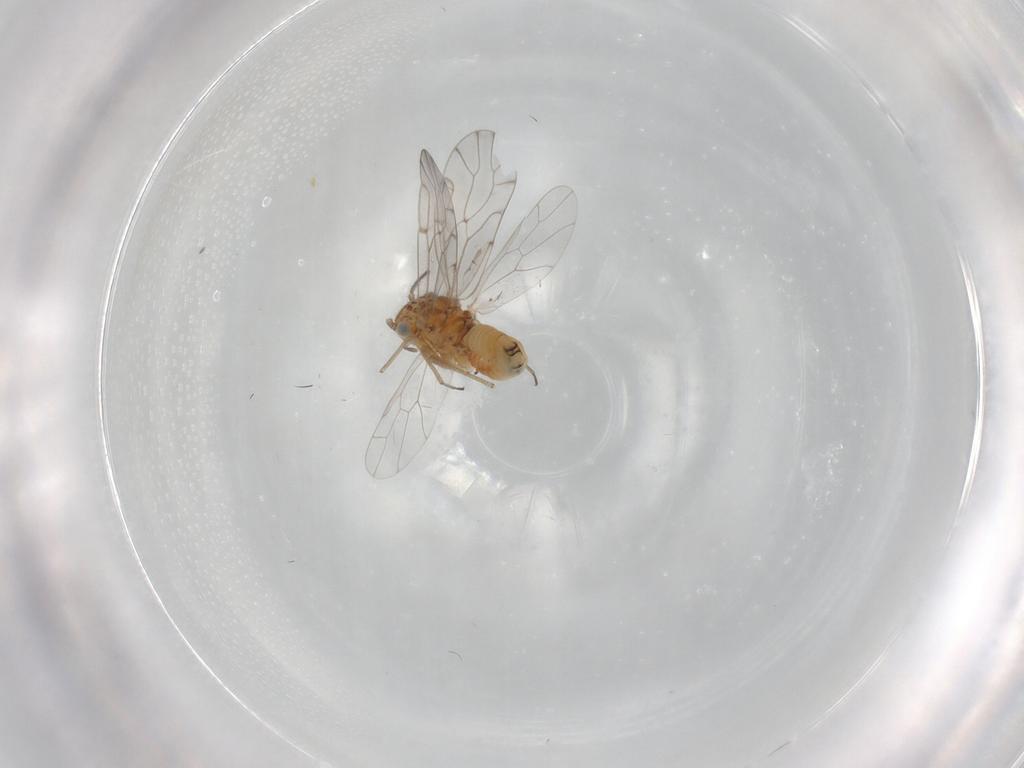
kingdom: Animalia
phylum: Arthropoda
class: Insecta
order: Psocodea
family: Ectopsocidae
